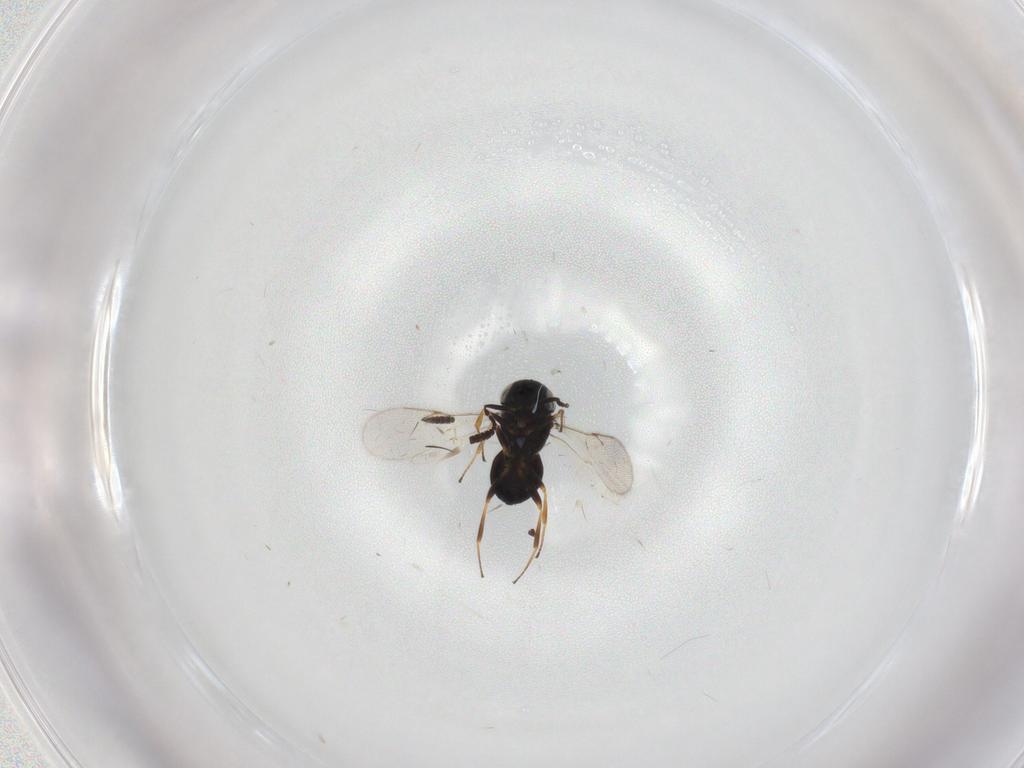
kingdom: Animalia
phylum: Arthropoda
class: Insecta
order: Hymenoptera
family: Scelionidae
